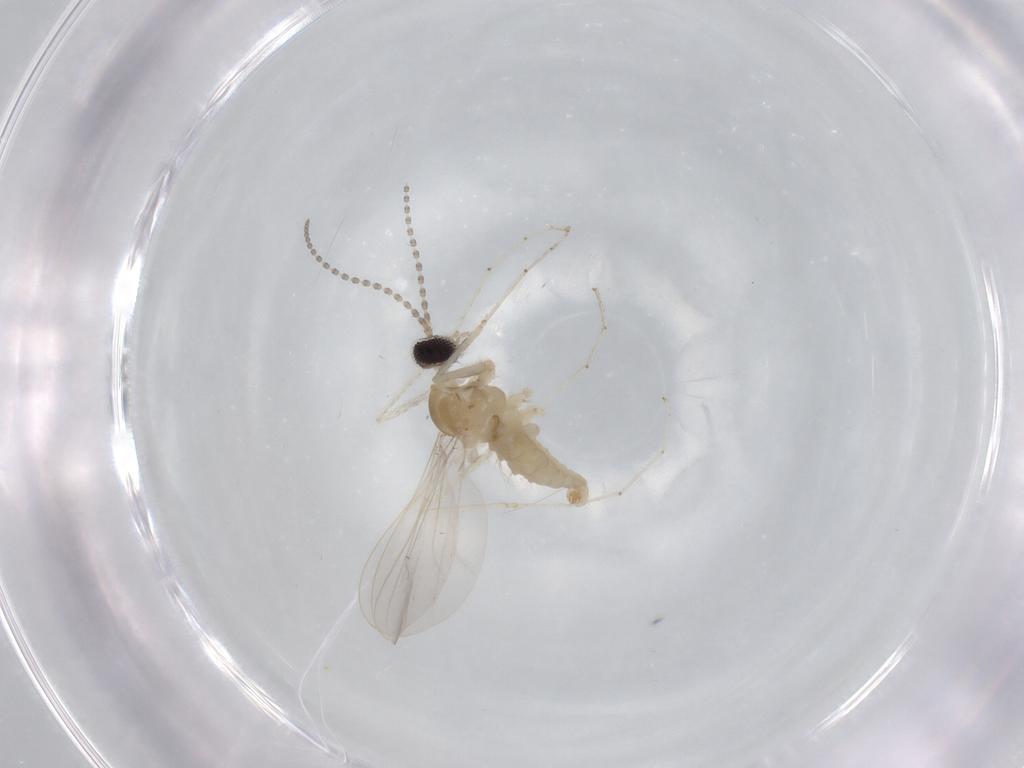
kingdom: Animalia
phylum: Arthropoda
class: Insecta
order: Diptera
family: Cecidomyiidae
